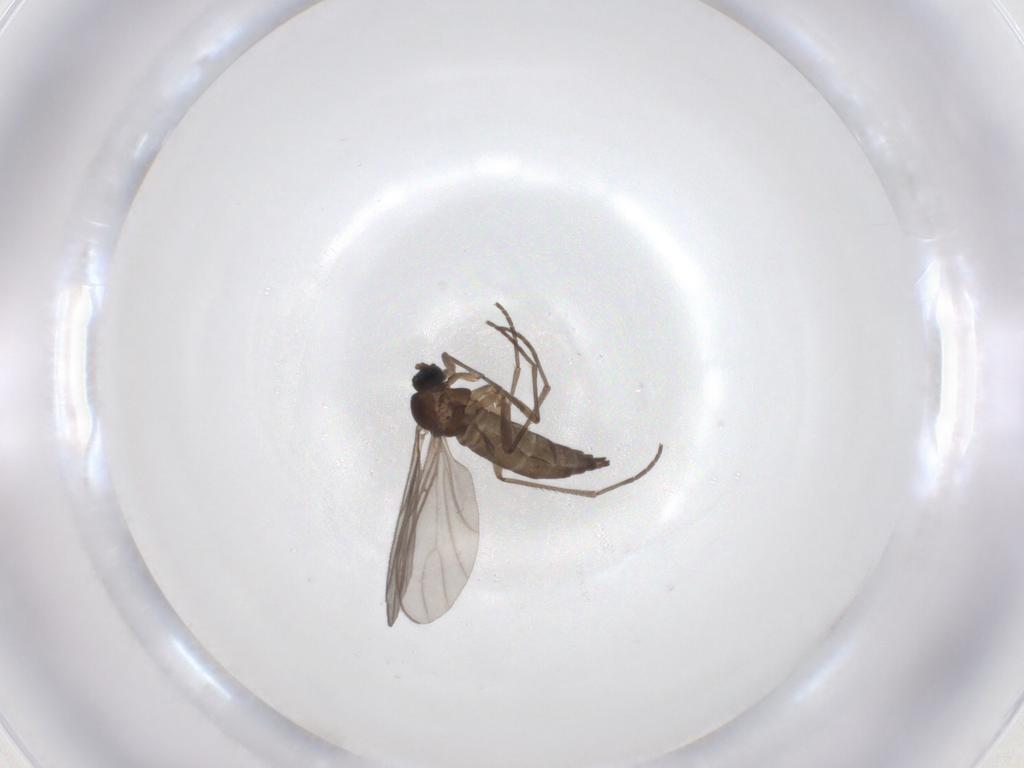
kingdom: Animalia
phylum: Arthropoda
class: Insecta
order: Diptera
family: Sciaridae
